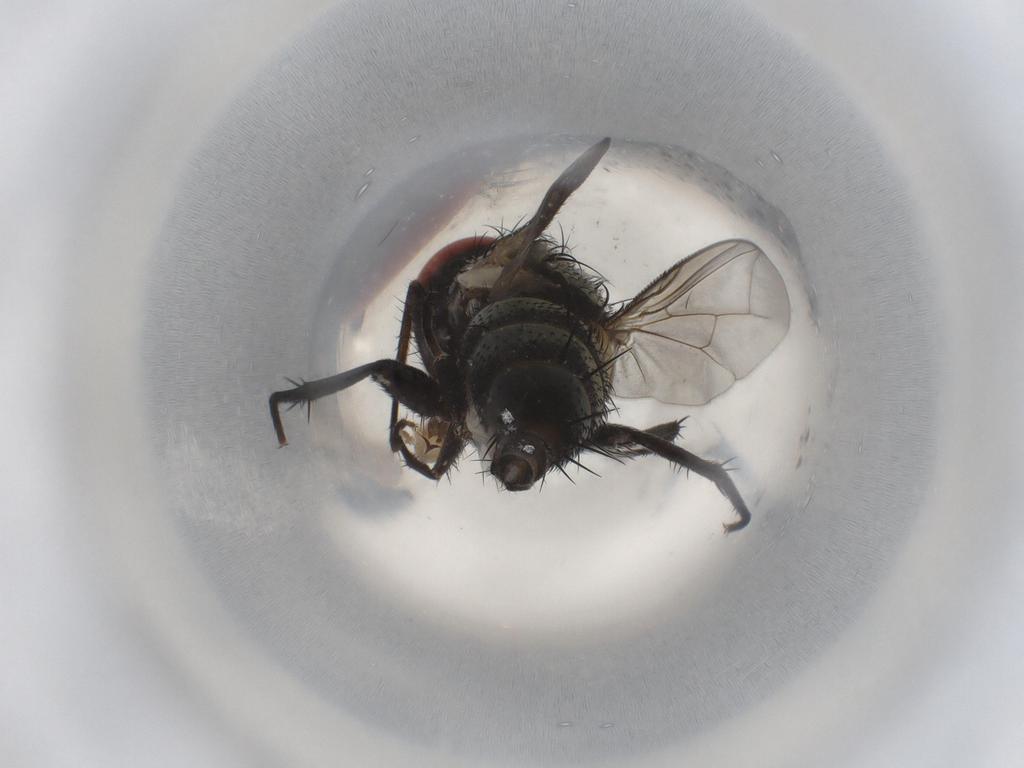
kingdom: Animalia
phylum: Arthropoda
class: Insecta
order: Diptera
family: Sarcophagidae
